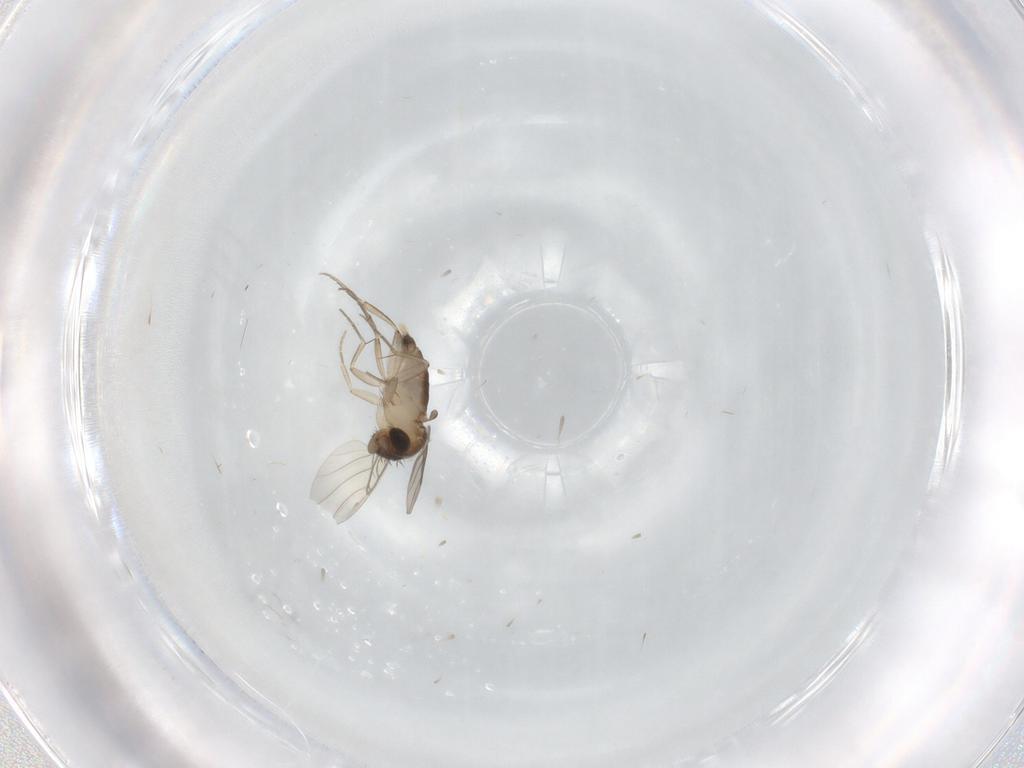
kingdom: Animalia
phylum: Arthropoda
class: Insecta
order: Diptera
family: Phoridae
